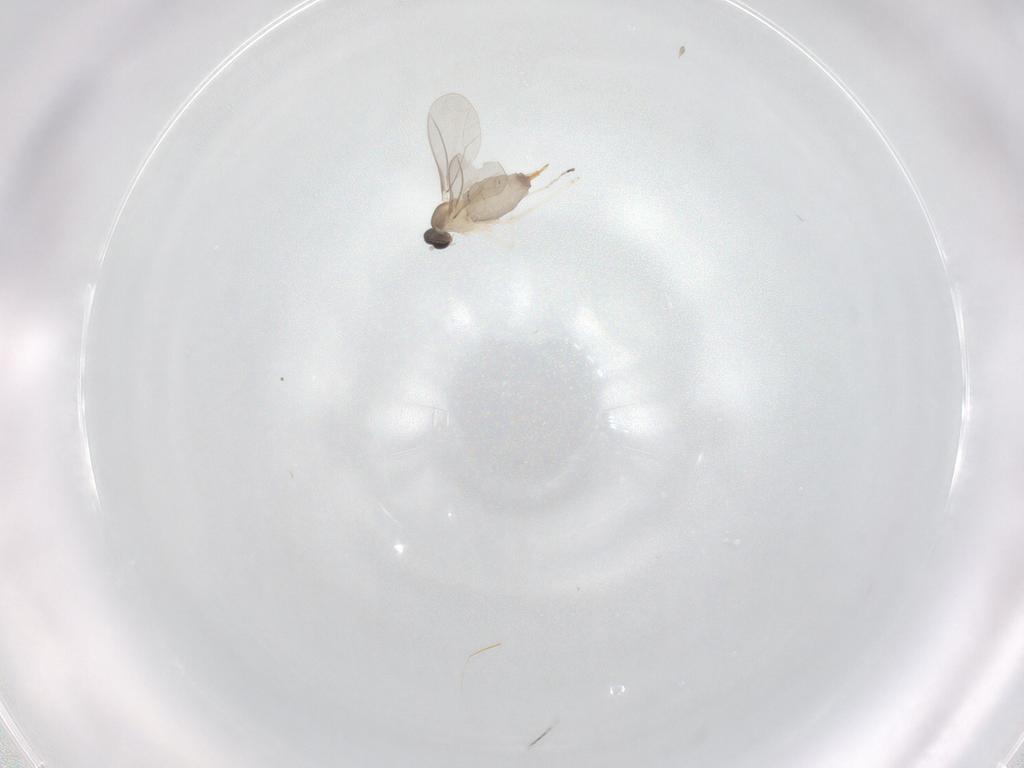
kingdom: Animalia
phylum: Arthropoda
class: Insecta
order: Diptera
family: Cecidomyiidae
